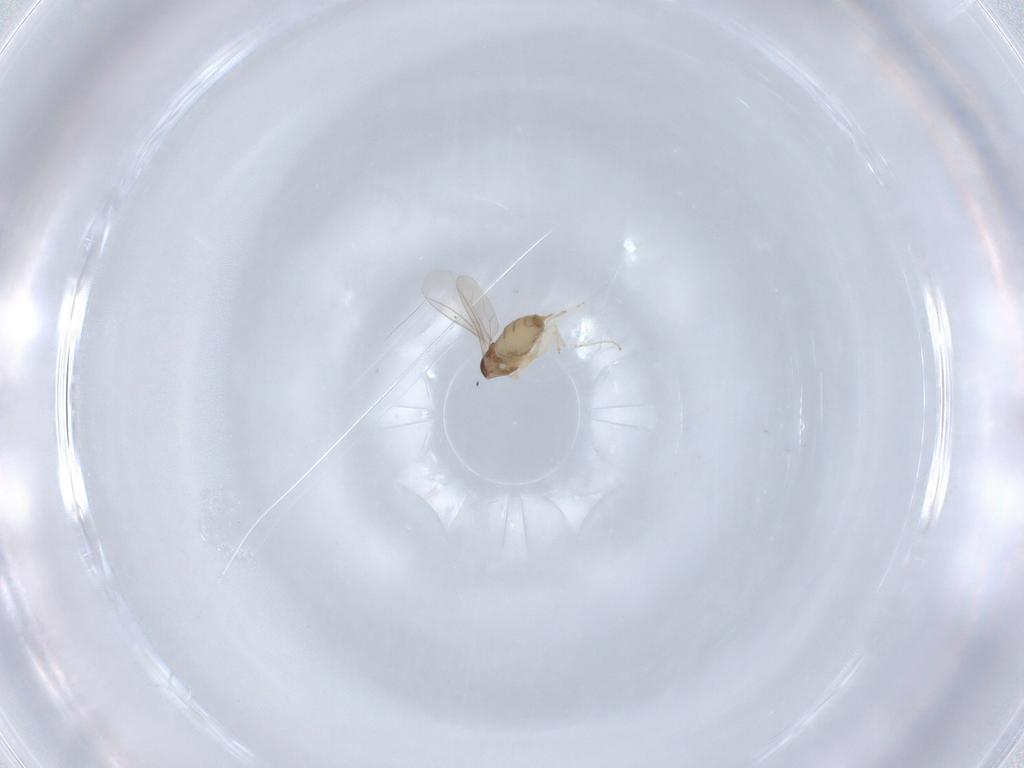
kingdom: Animalia
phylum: Arthropoda
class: Insecta
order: Diptera
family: Cecidomyiidae
